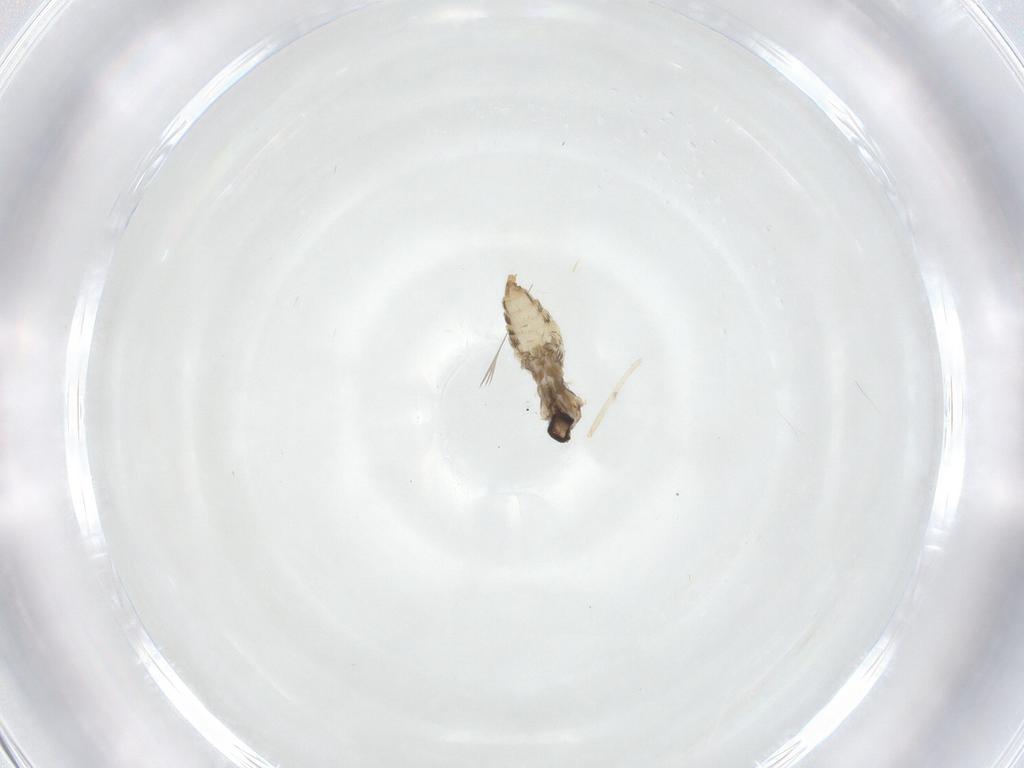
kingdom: Animalia
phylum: Arthropoda
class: Insecta
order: Diptera
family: Cecidomyiidae
